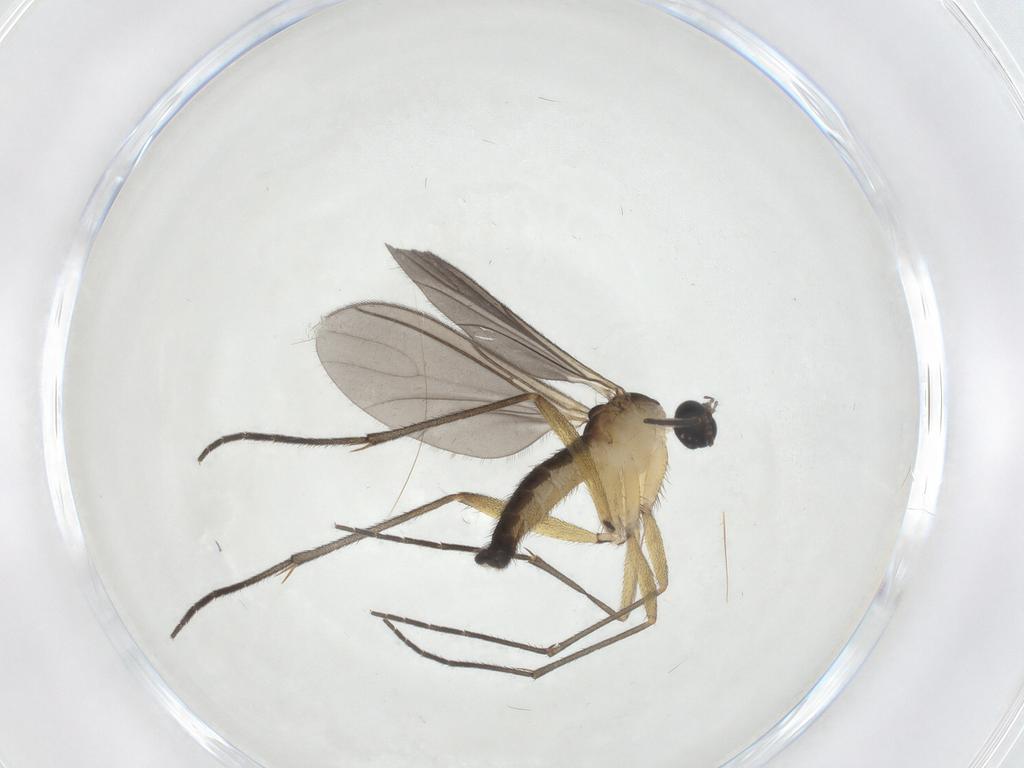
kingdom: Animalia
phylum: Arthropoda
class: Insecta
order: Diptera
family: Sciaridae
